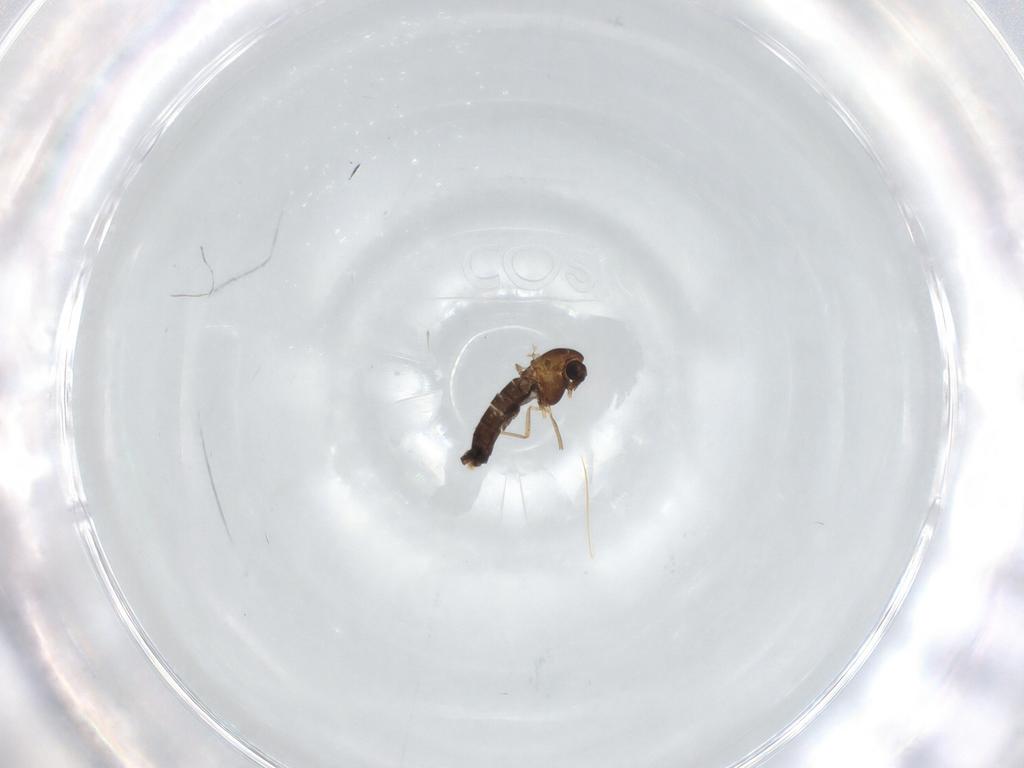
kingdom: Animalia
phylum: Arthropoda
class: Insecta
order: Diptera
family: Chironomidae
